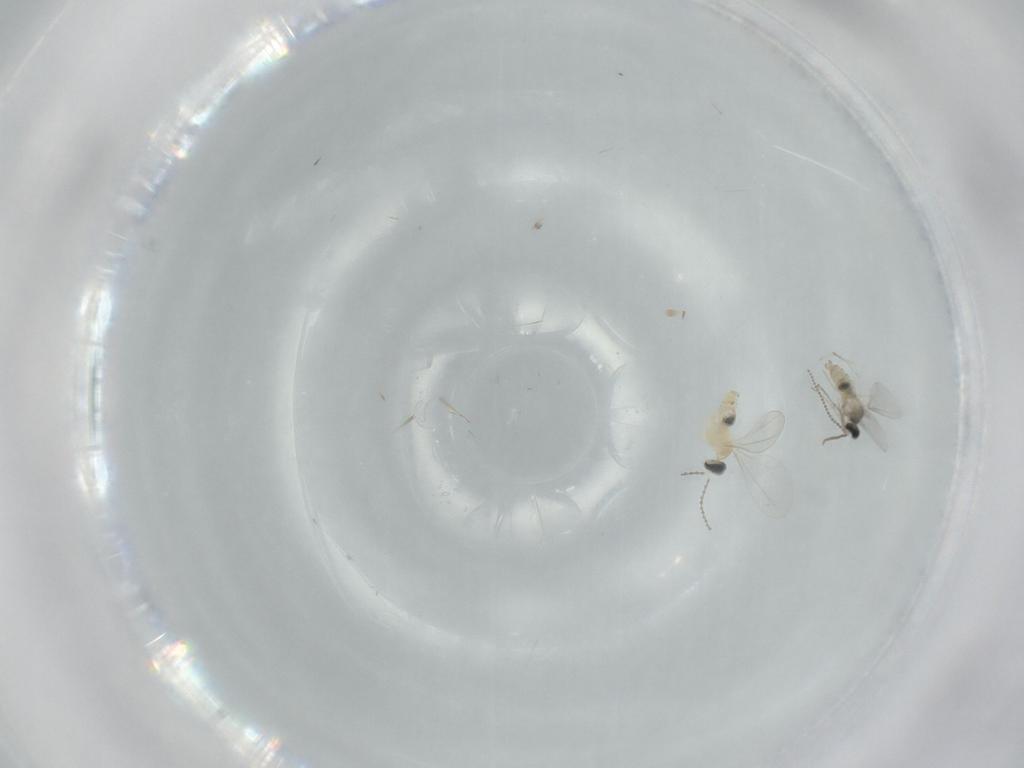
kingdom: Animalia
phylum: Arthropoda
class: Insecta
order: Diptera
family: Cecidomyiidae
